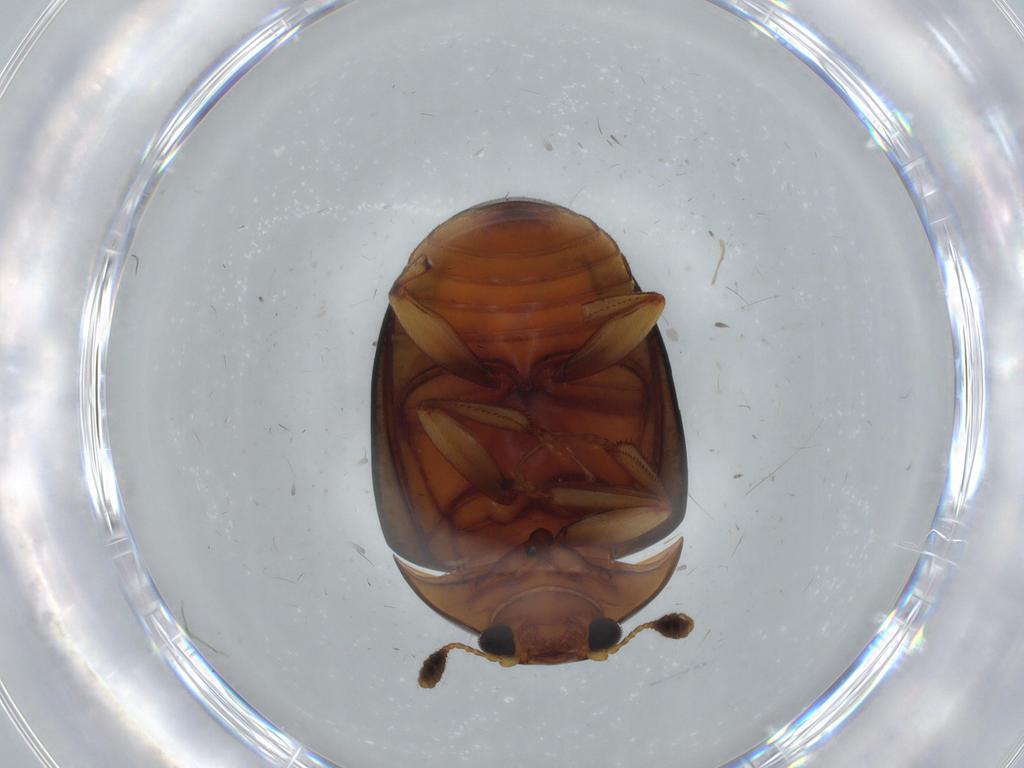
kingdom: Animalia
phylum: Arthropoda
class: Insecta
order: Coleoptera
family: Nitidulidae
